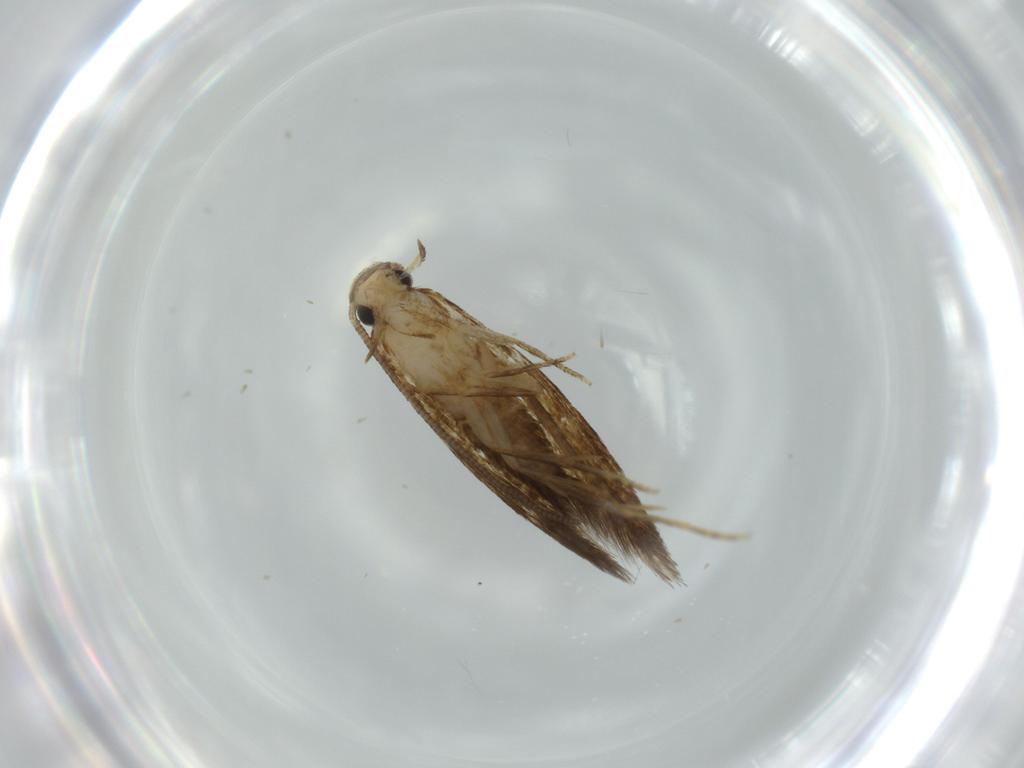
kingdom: Animalia
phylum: Arthropoda
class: Insecta
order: Lepidoptera
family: Tineidae
